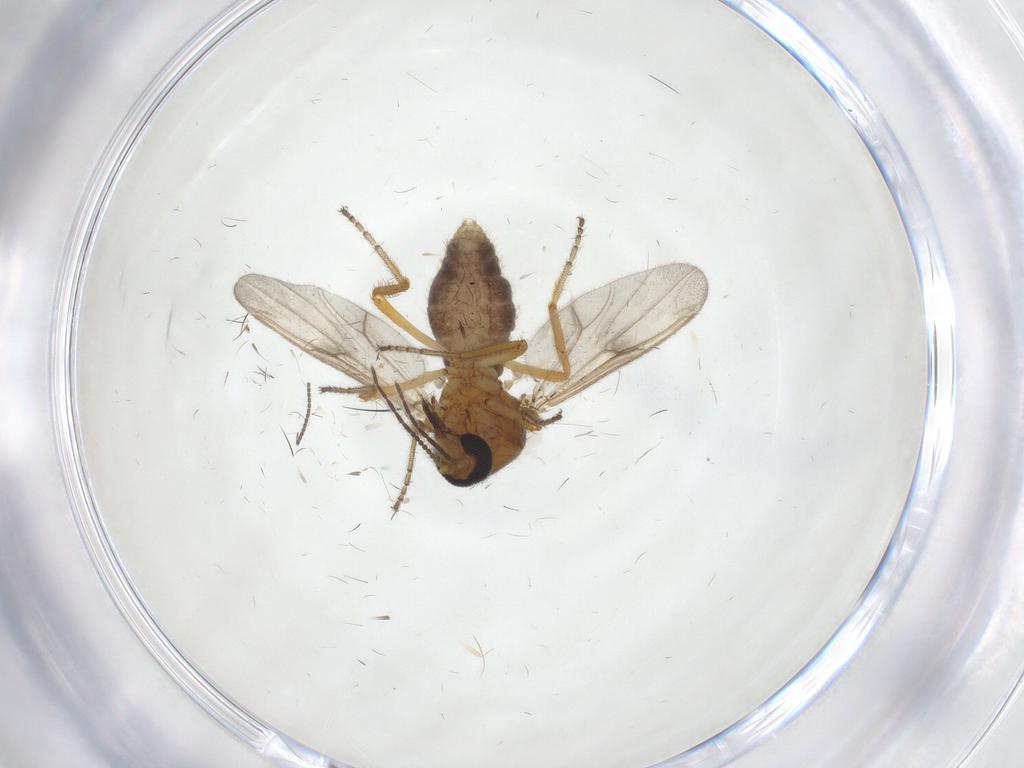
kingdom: Animalia
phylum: Arthropoda
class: Insecta
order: Diptera
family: Ceratopogonidae
